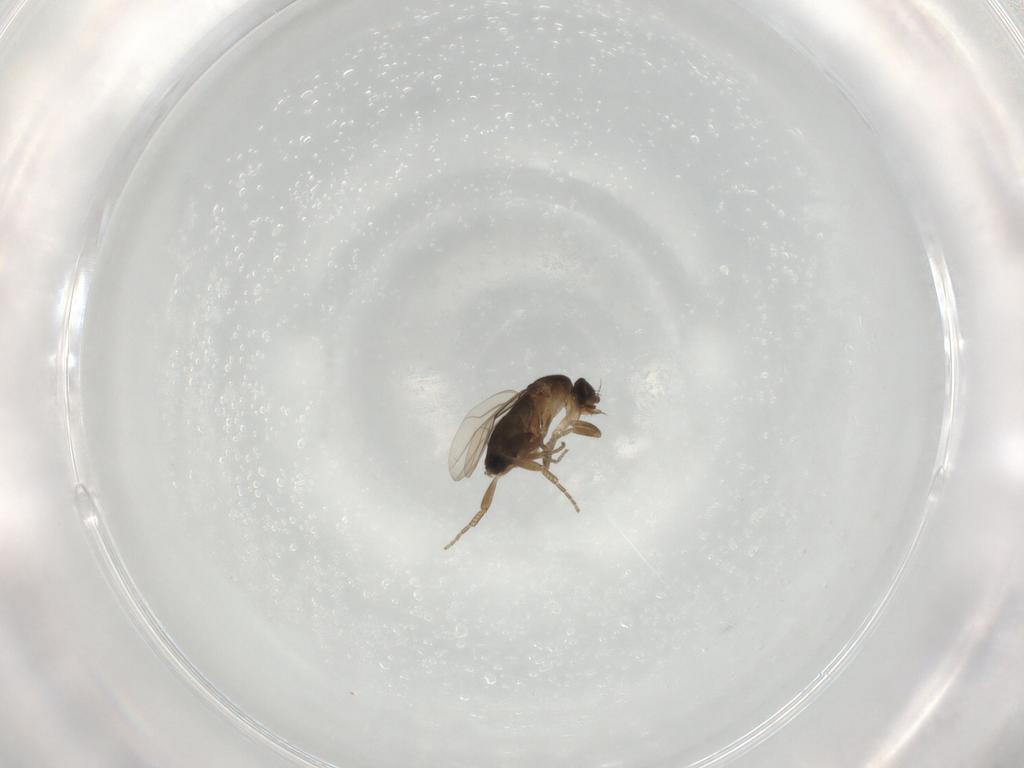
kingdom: Animalia
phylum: Arthropoda
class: Insecta
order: Diptera
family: Phoridae
